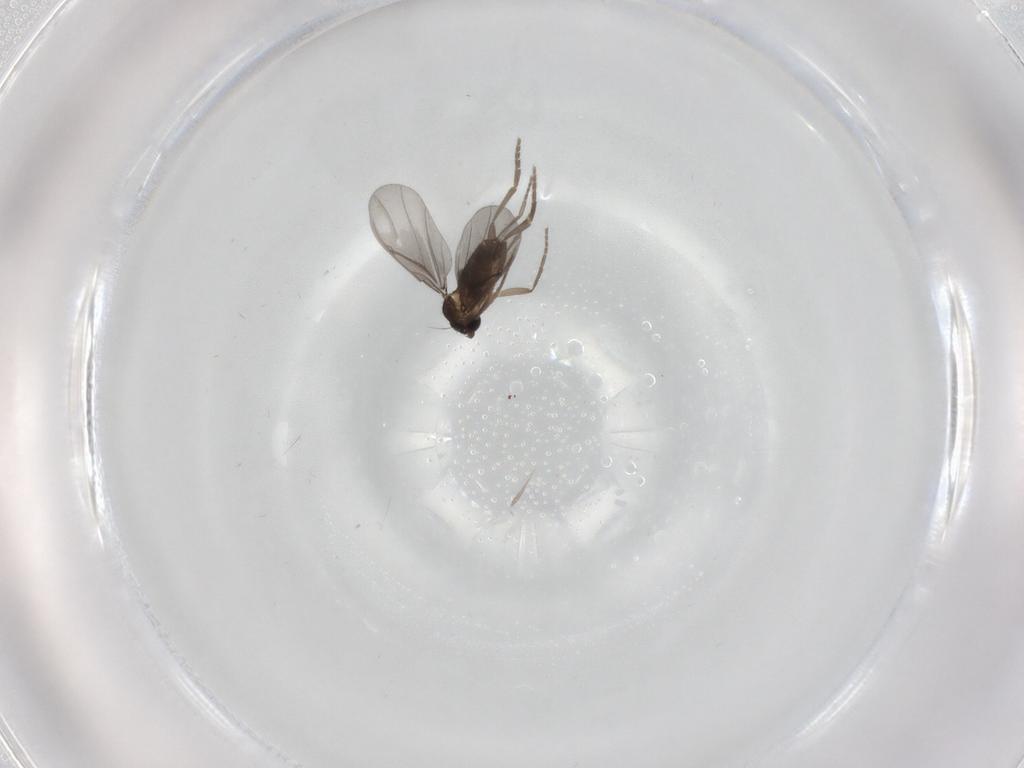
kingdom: Animalia
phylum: Arthropoda
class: Insecta
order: Diptera
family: Phoridae
